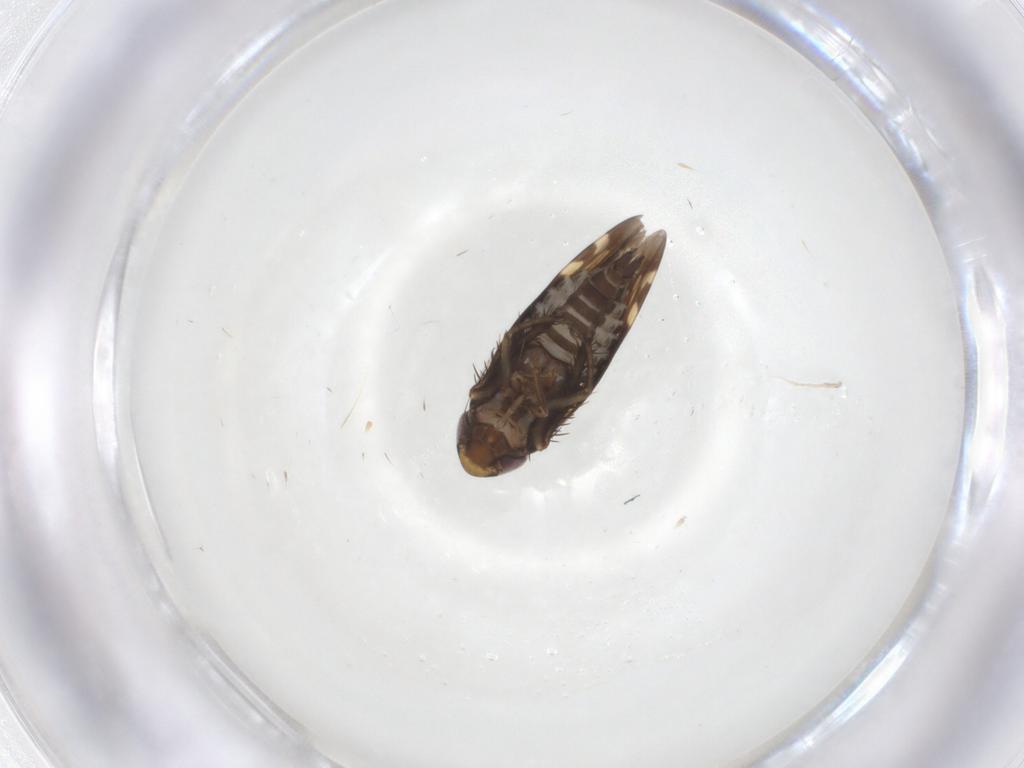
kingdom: Animalia
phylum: Arthropoda
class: Insecta
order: Hemiptera
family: Cicadellidae
